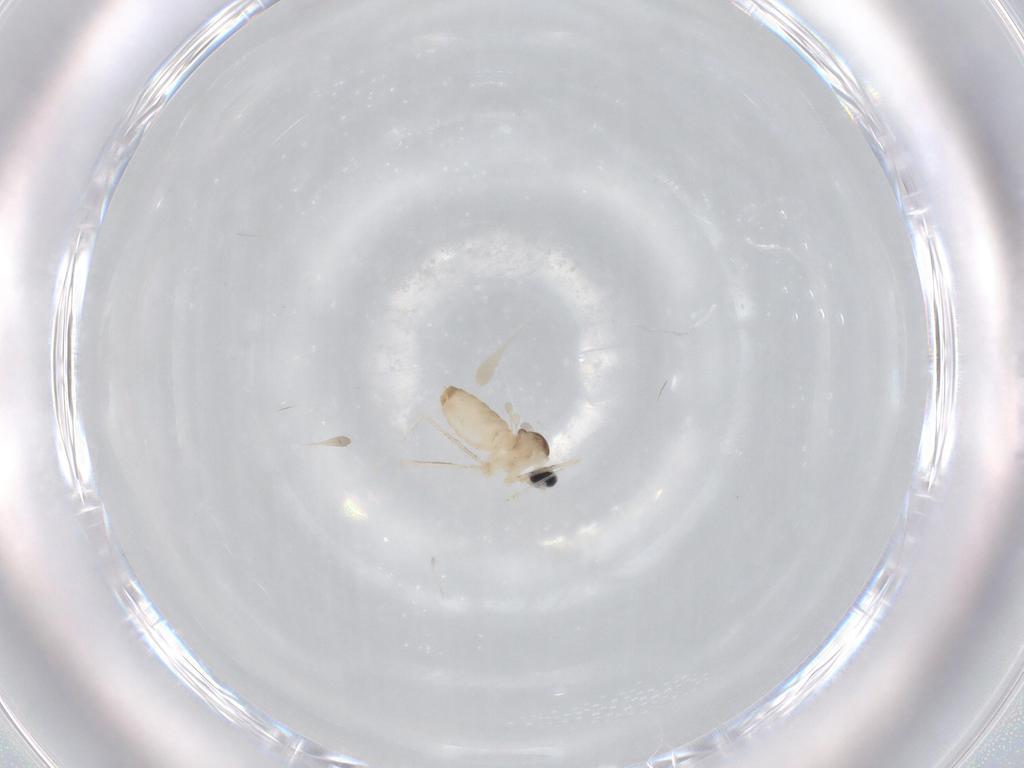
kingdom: Animalia
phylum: Arthropoda
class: Insecta
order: Diptera
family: Cecidomyiidae
